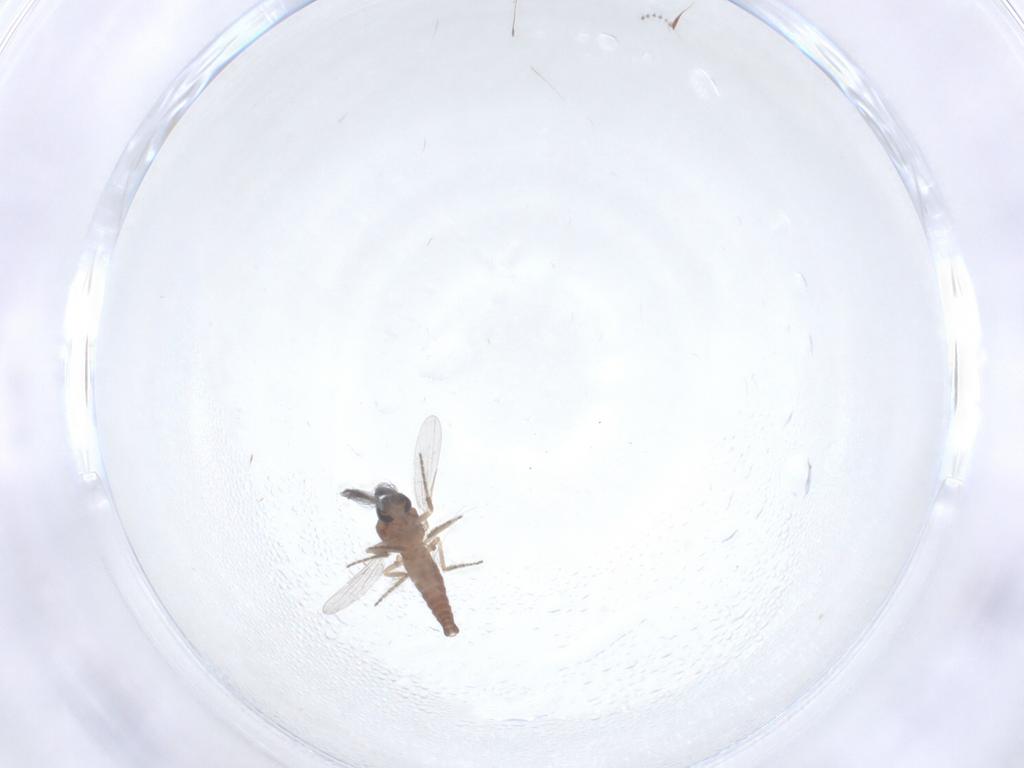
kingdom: Animalia
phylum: Arthropoda
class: Insecta
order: Diptera
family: Ceratopogonidae
